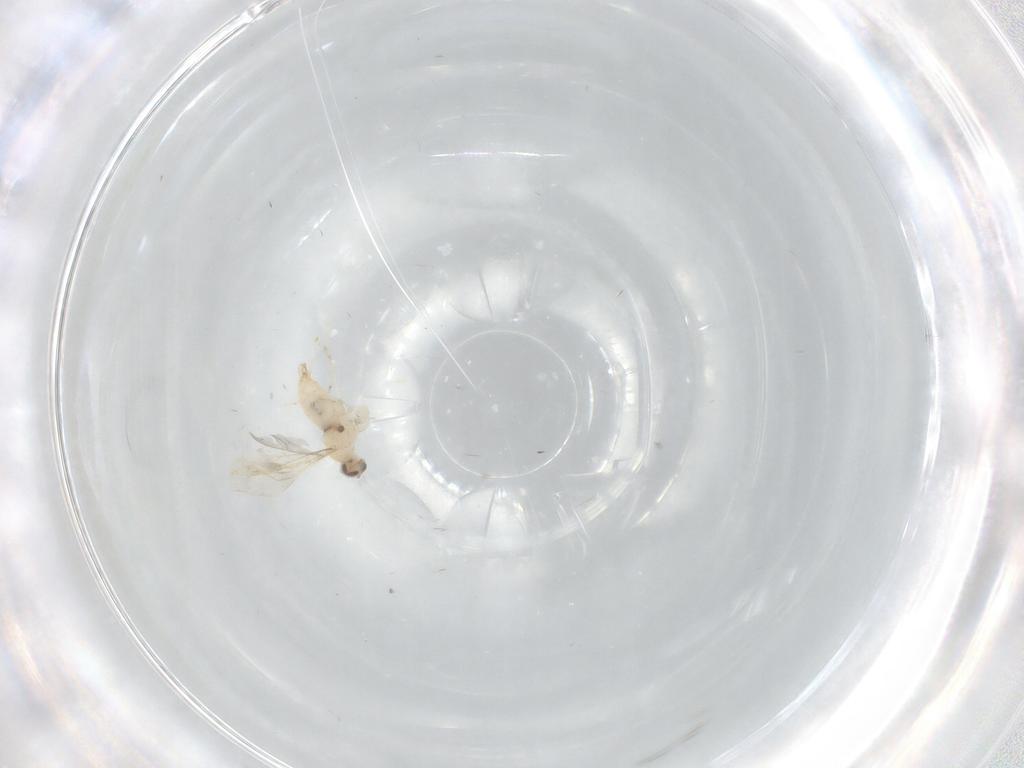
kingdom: Animalia
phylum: Arthropoda
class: Insecta
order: Diptera
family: Cecidomyiidae
